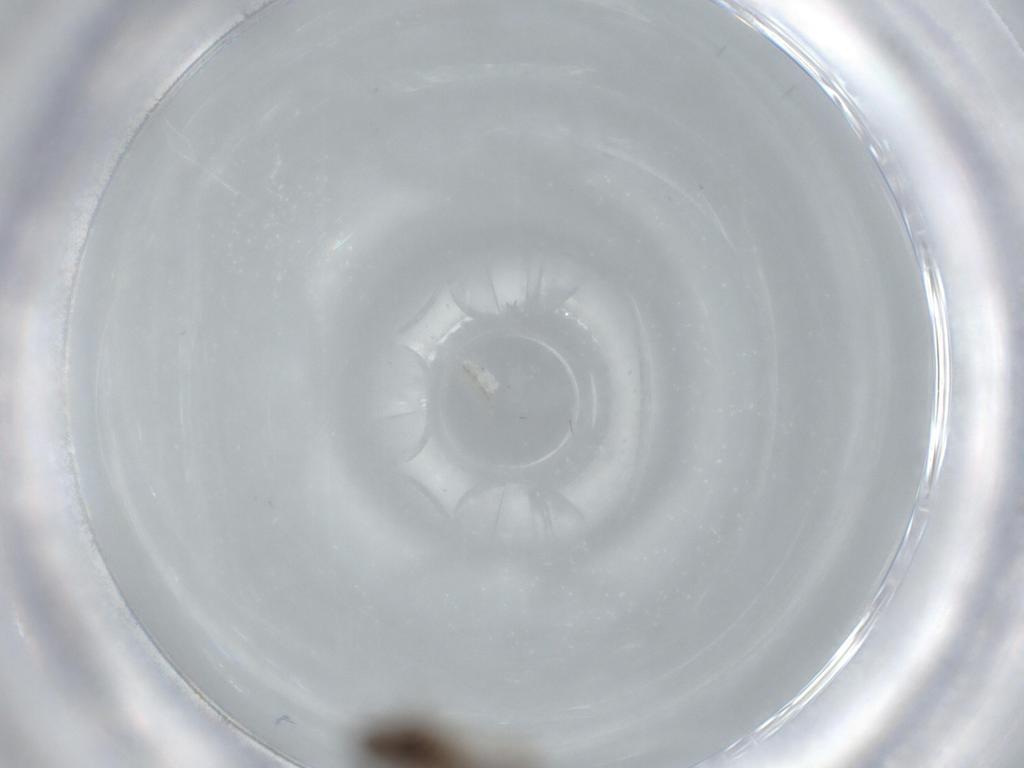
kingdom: Animalia
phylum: Arthropoda
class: Insecta
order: Diptera
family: Cecidomyiidae
